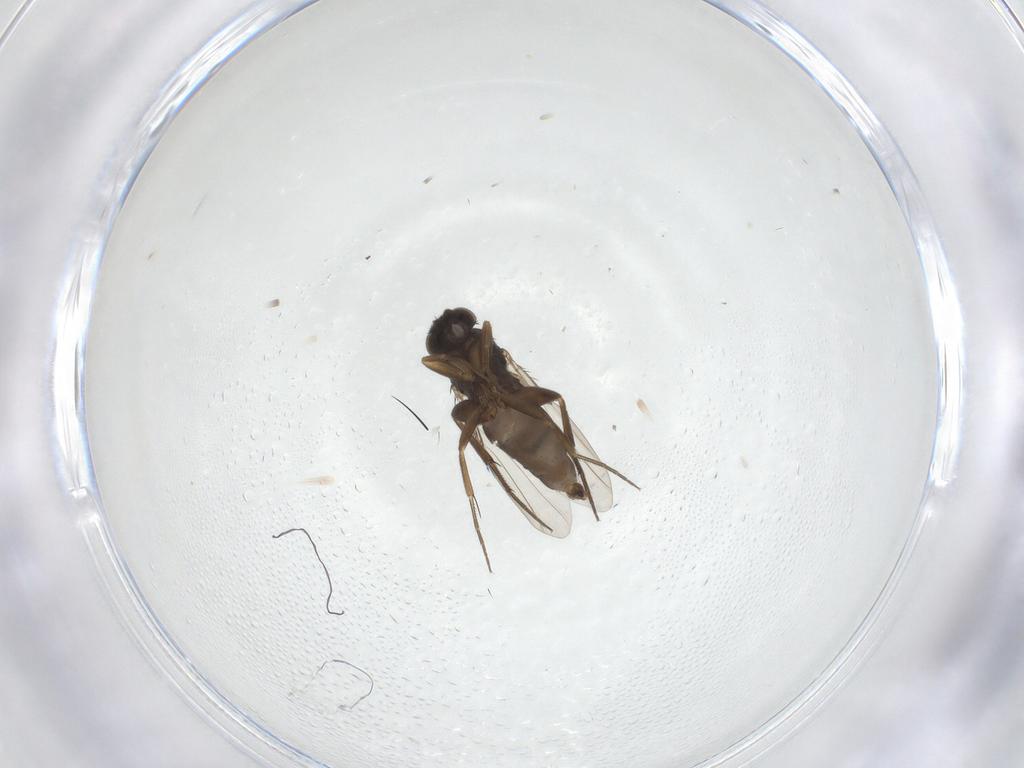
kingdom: Animalia
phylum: Arthropoda
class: Insecta
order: Diptera
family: Phoridae
